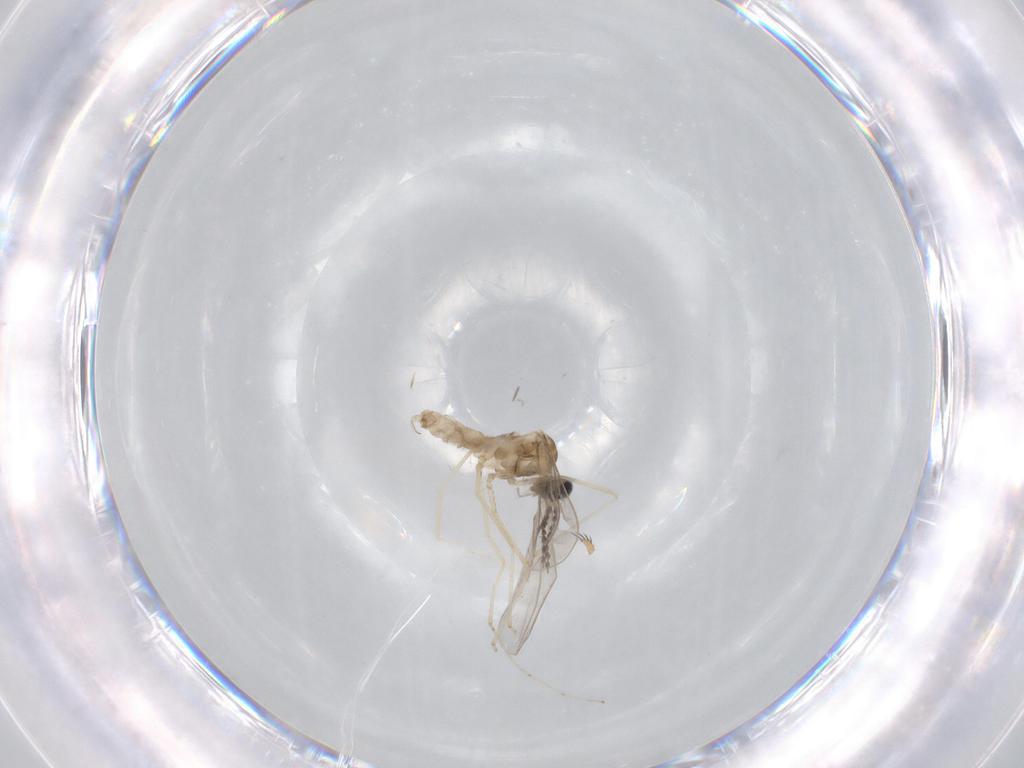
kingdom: Animalia
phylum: Arthropoda
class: Insecta
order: Diptera
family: Cecidomyiidae
